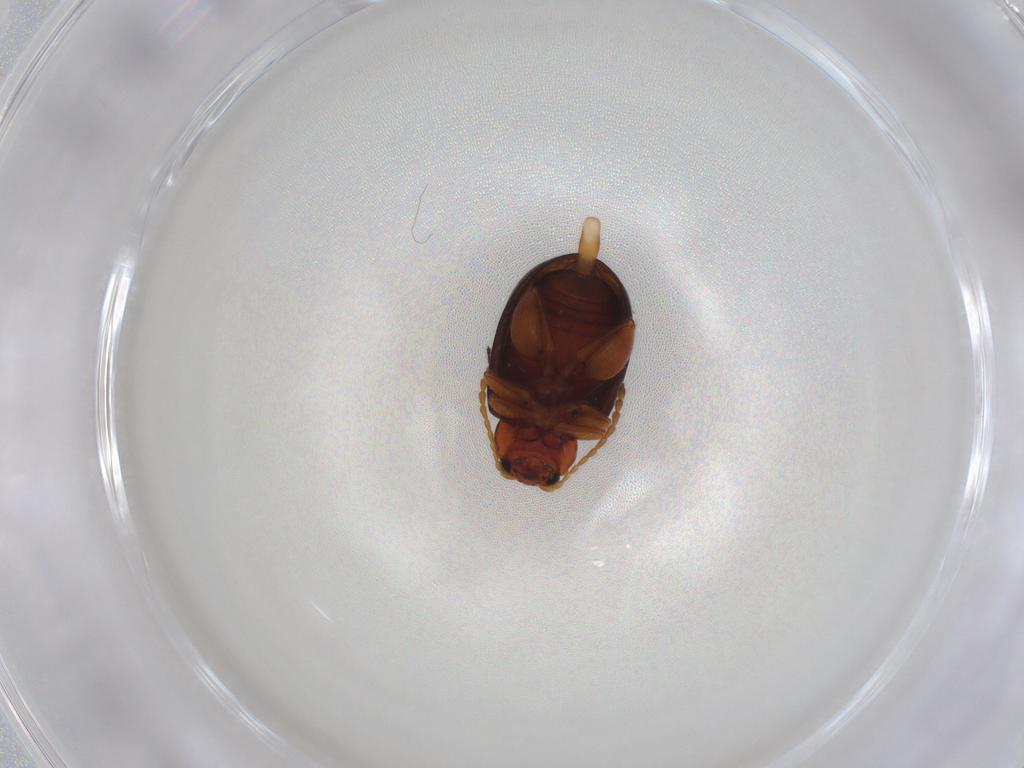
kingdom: Animalia
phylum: Arthropoda
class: Insecta
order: Coleoptera
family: Chrysomelidae
